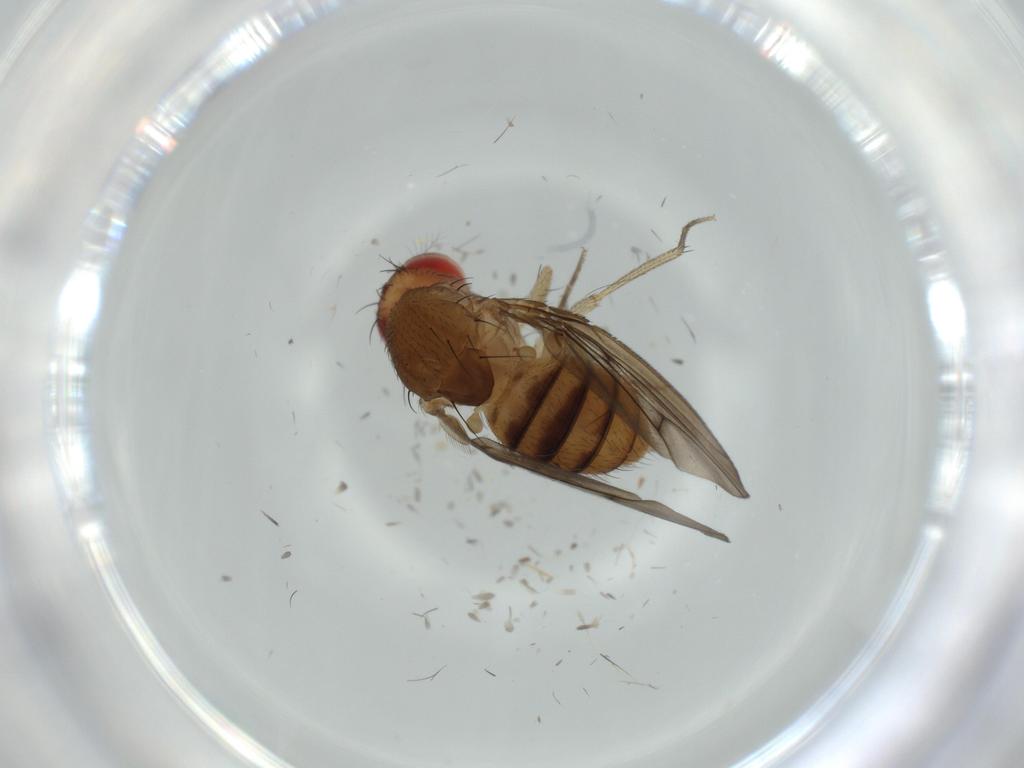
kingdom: Animalia
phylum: Arthropoda
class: Insecta
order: Diptera
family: Drosophilidae
